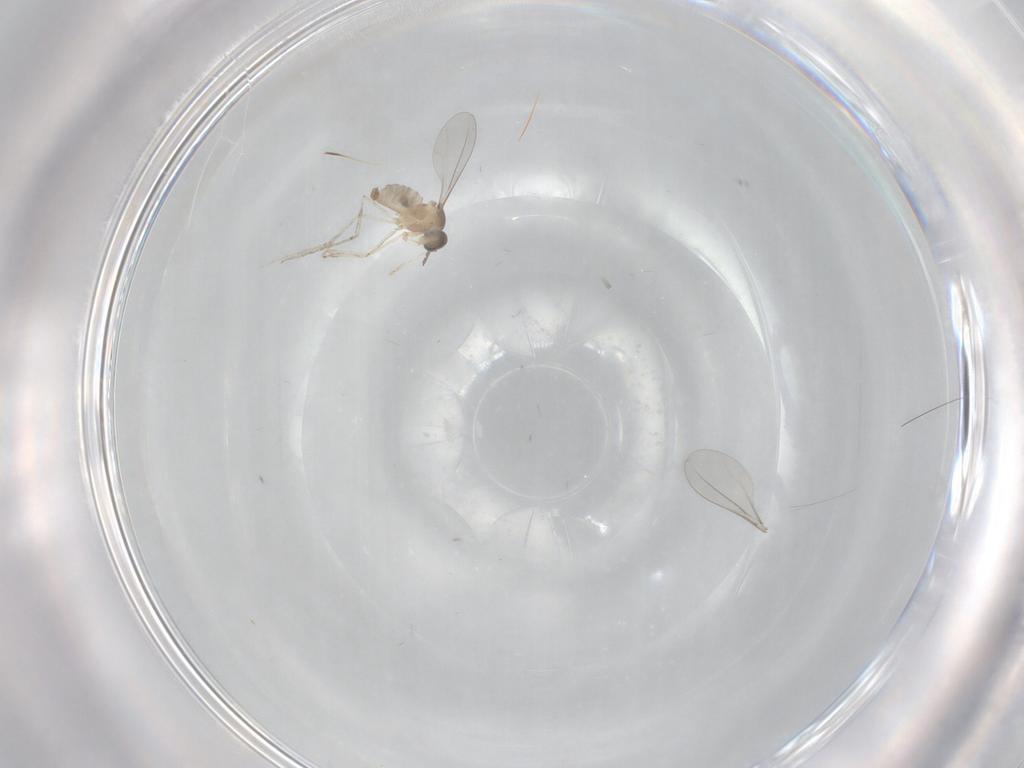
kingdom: Animalia
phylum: Arthropoda
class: Insecta
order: Diptera
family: Cecidomyiidae
